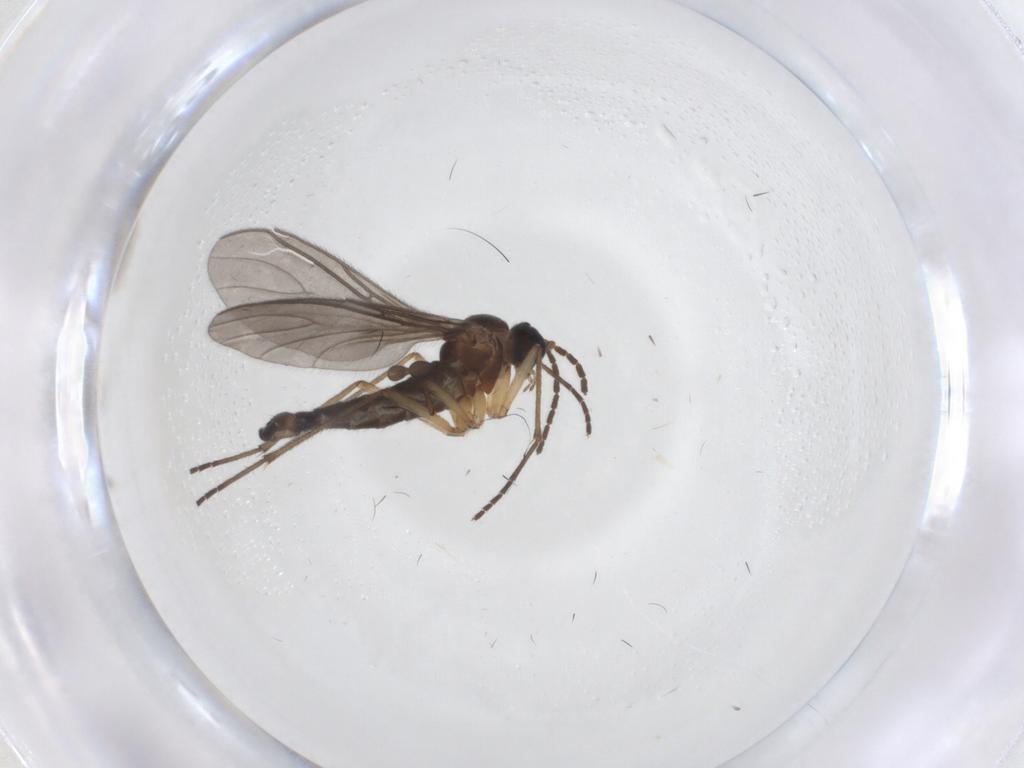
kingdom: Animalia
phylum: Arthropoda
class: Insecta
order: Diptera
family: Sciaridae
